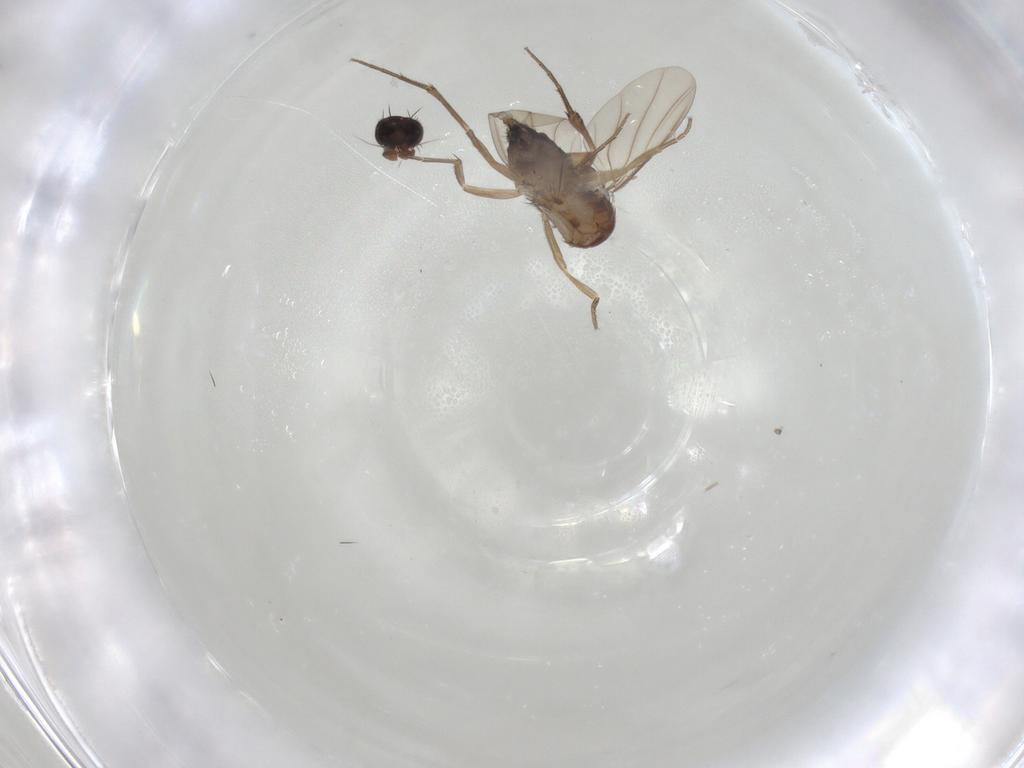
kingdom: Animalia
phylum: Arthropoda
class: Insecta
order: Diptera
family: Phoridae
